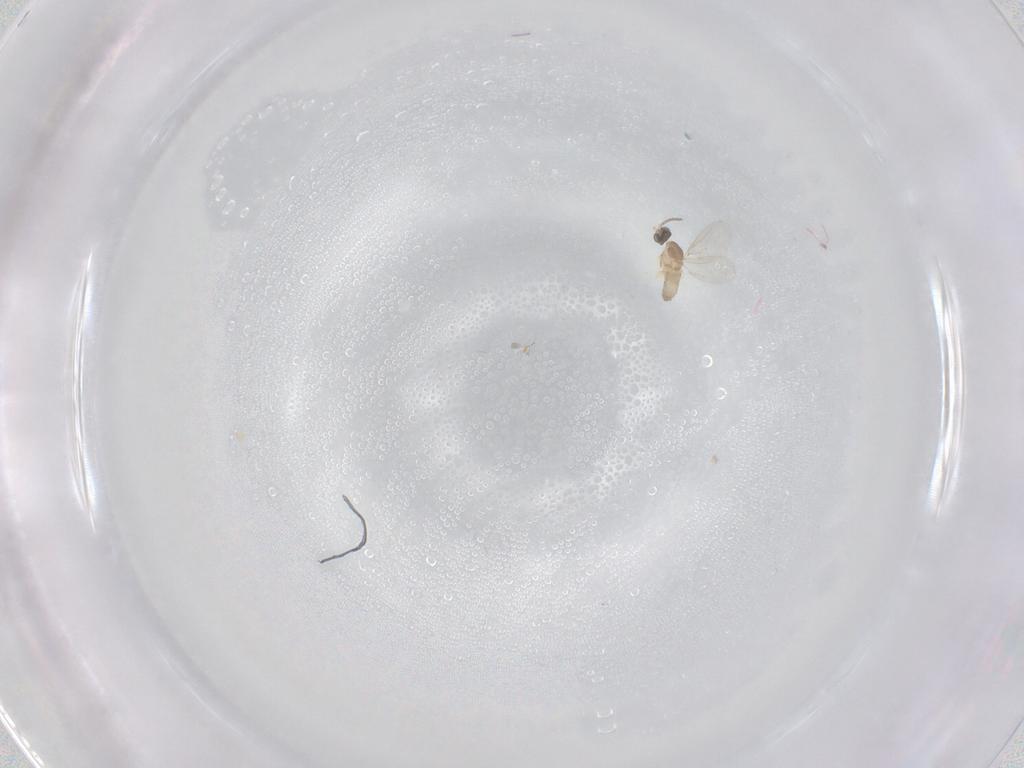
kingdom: Animalia
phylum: Arthropoda
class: Insecta
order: Diptera
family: Cecidomyiidae
